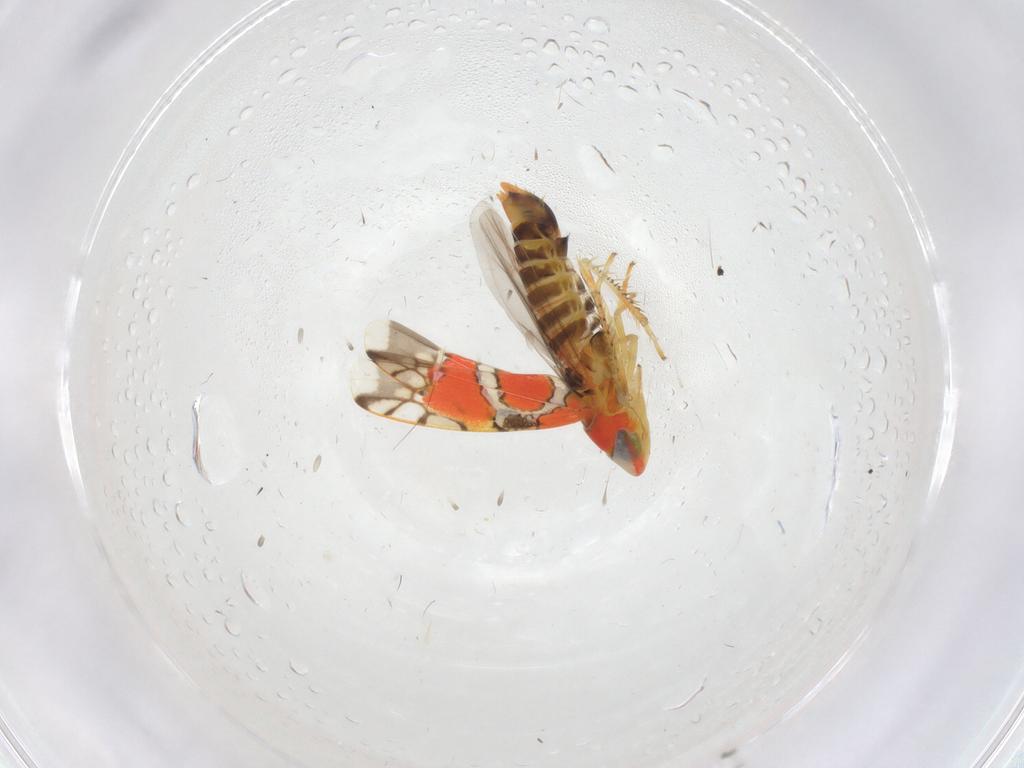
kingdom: Animalia
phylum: Arthropoda
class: Insecta
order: Hemiptera
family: Cicadellidae
